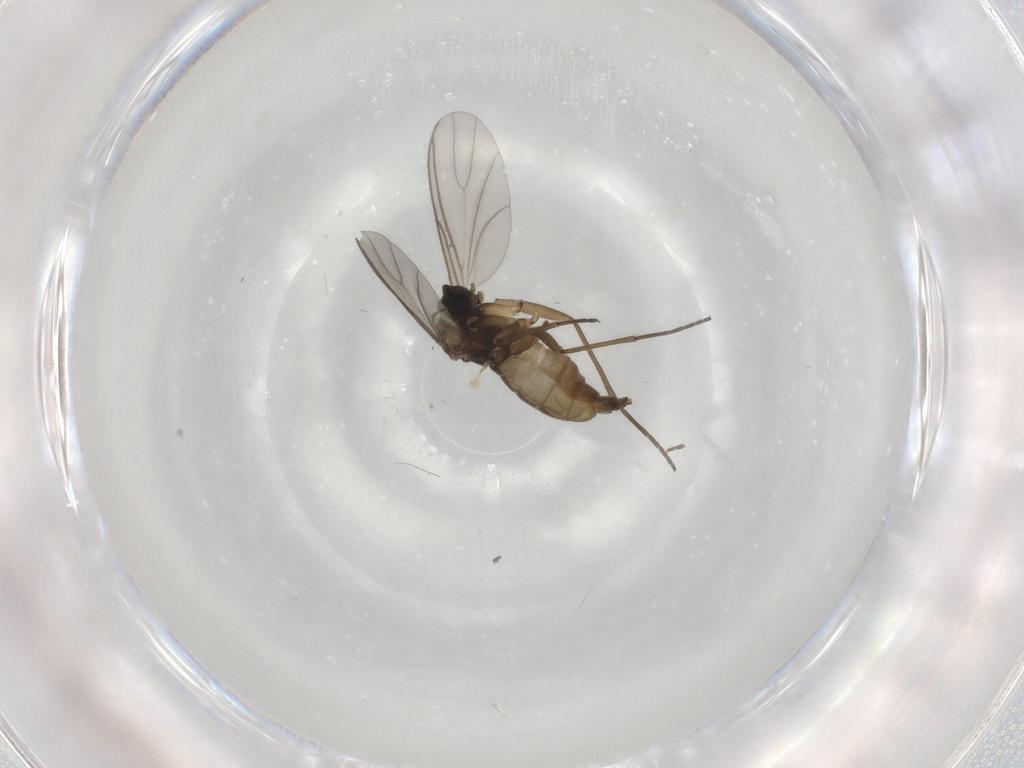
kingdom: Animalia
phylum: Arthropoda
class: Insecta
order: Diptera
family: Sciaridae
